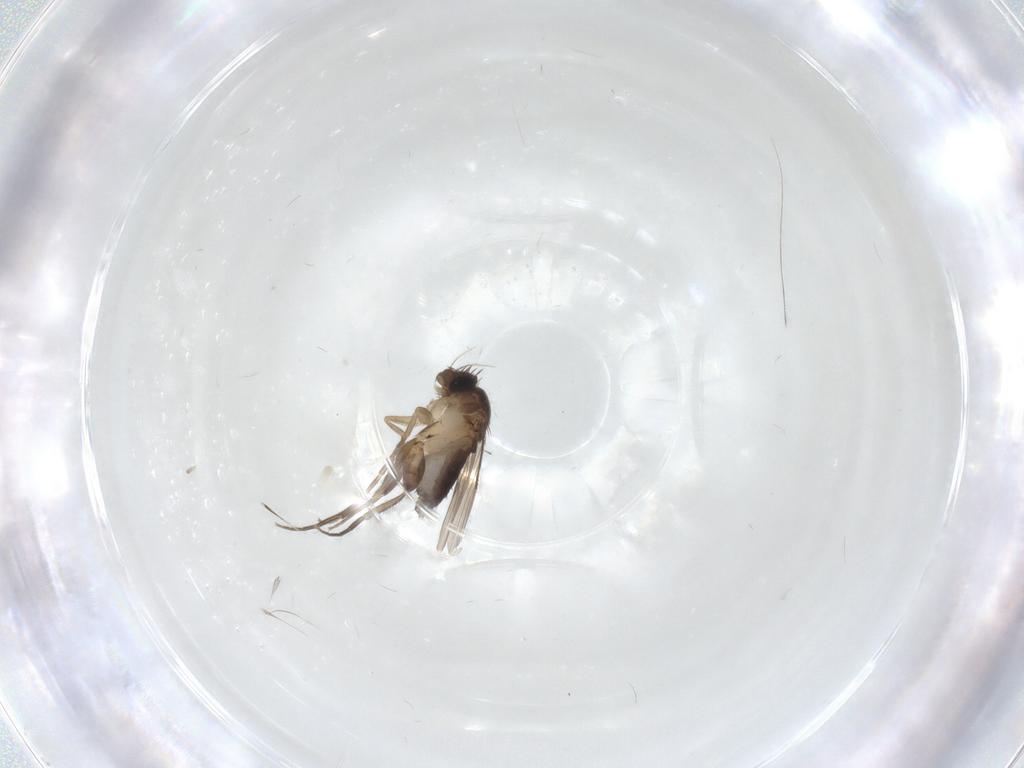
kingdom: Animalia
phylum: Arthropoda
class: Insecta
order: Diptera
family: Phoridae
